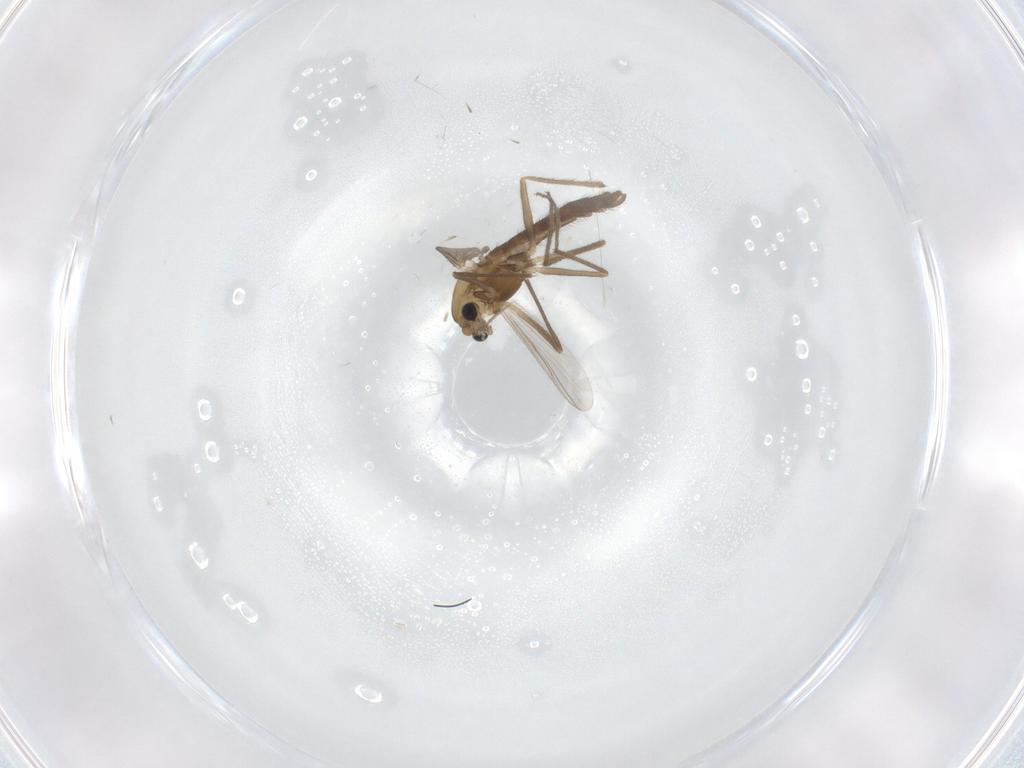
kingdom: Animalia
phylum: Arthropoda
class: Insecta
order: Diptera
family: Chironomidae
